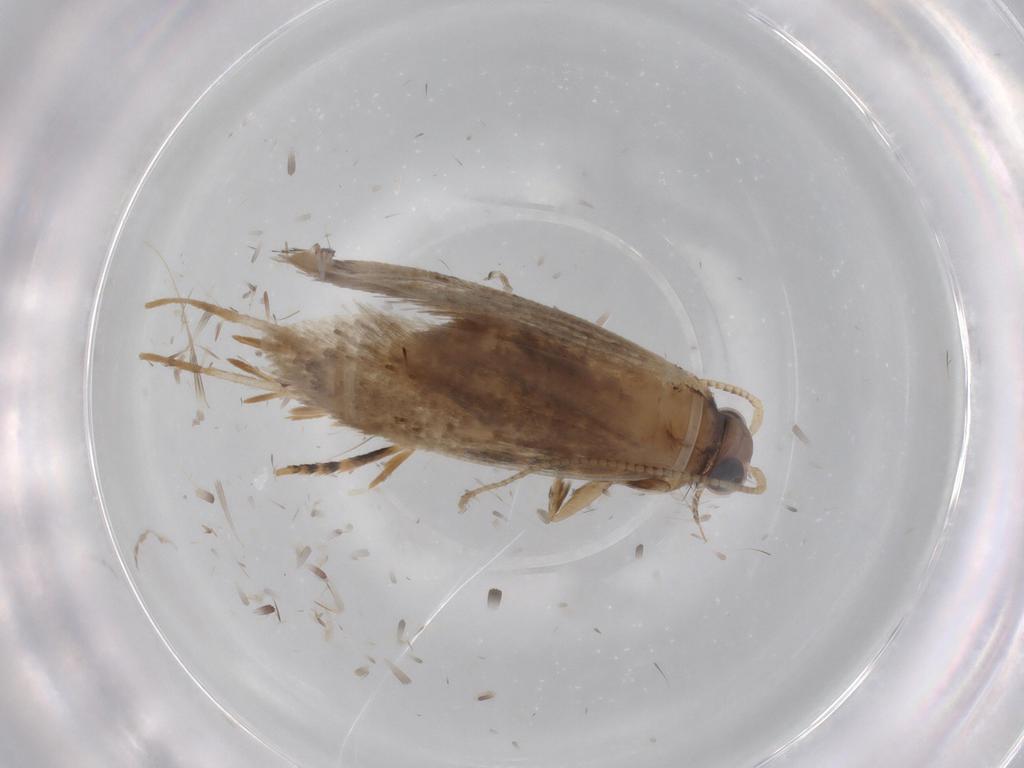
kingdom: Animalia
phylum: Arthropoda
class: Insecta
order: Lepidoptera
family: Tineidae
